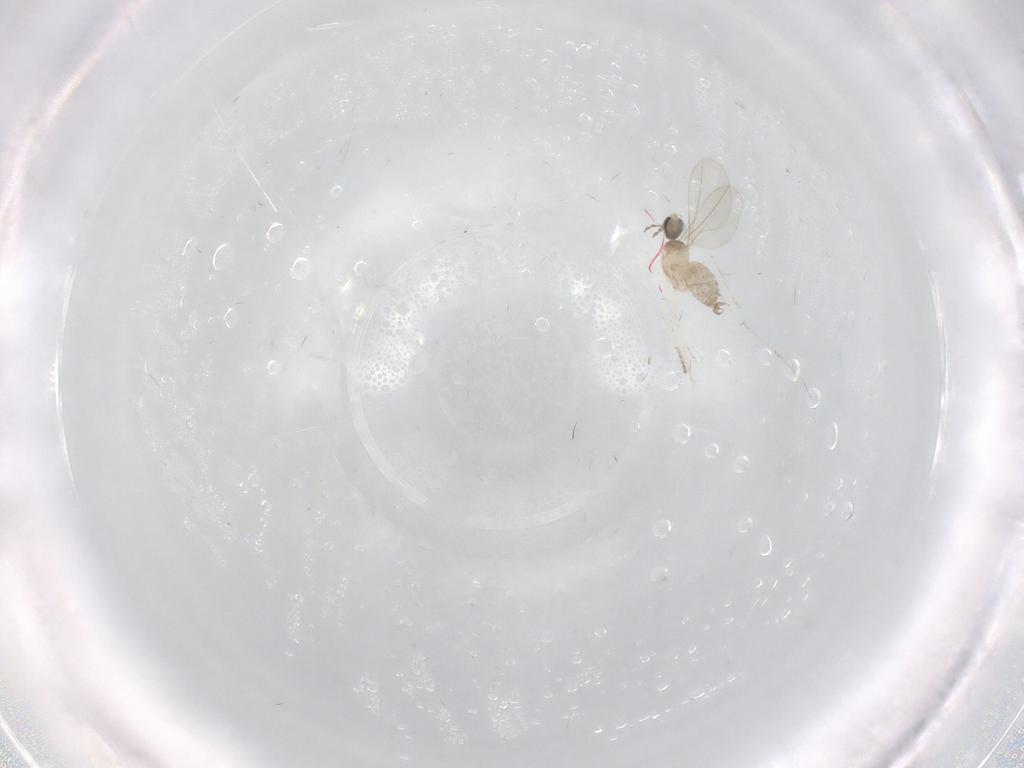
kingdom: Animalia
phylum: Arthropoda
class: Insecta
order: Diptera
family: Cecidomyiidae
